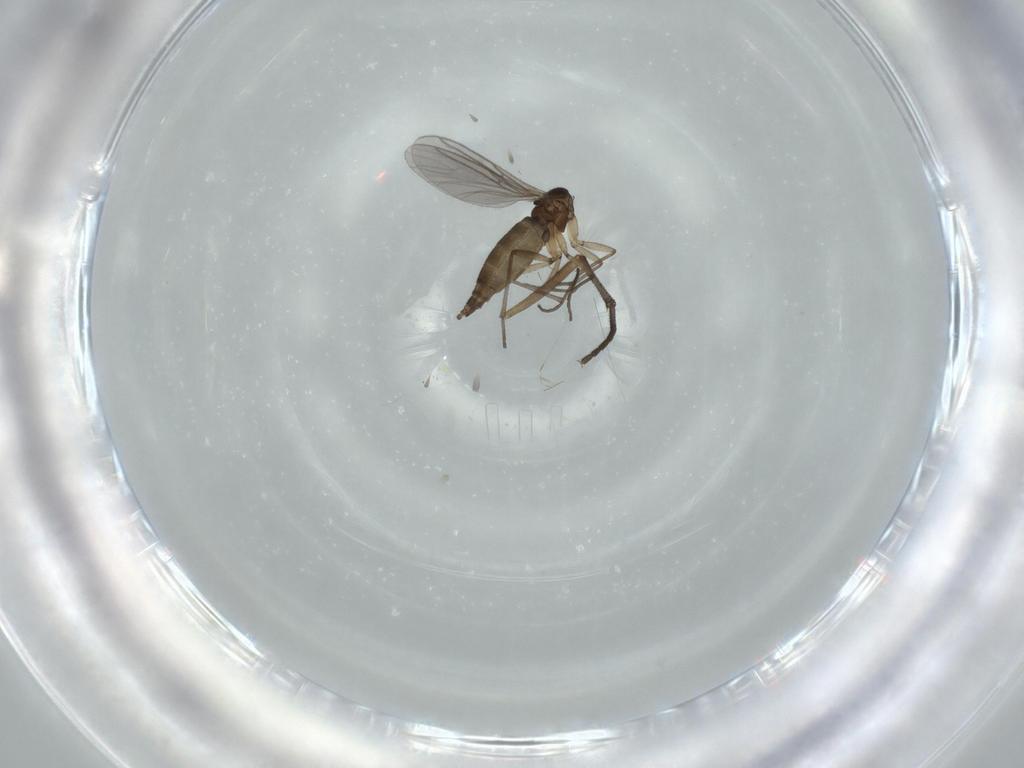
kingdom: Animalia
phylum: Arthropoda
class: Insecta
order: Diptera
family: Sciaridae
